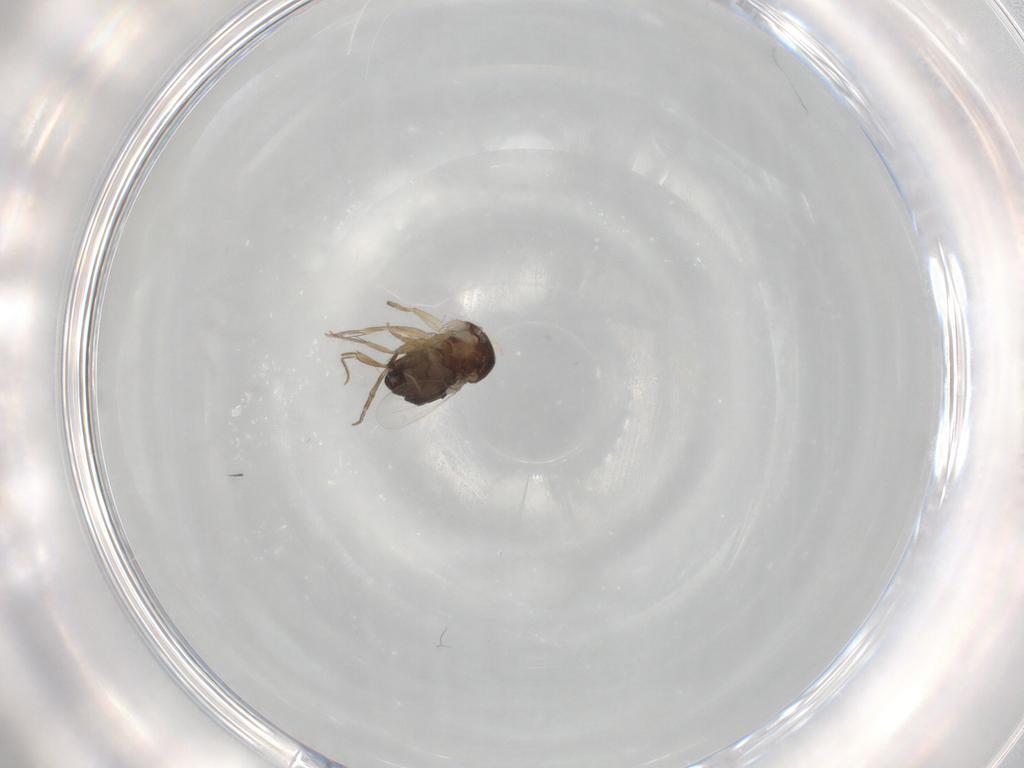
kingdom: Animalia
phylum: Arthropoda
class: Insecta
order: Diptera
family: Phoridae
